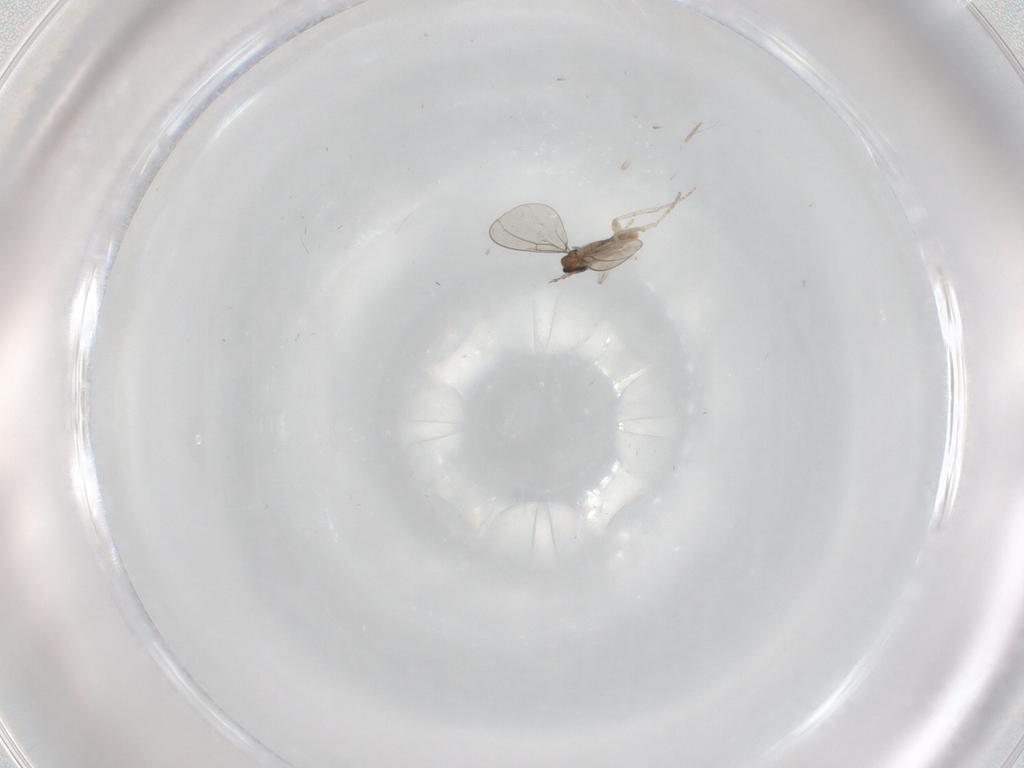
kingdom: Animalia
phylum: Arthropoda
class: Insecta
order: Diptera
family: Cecidomyiidae
